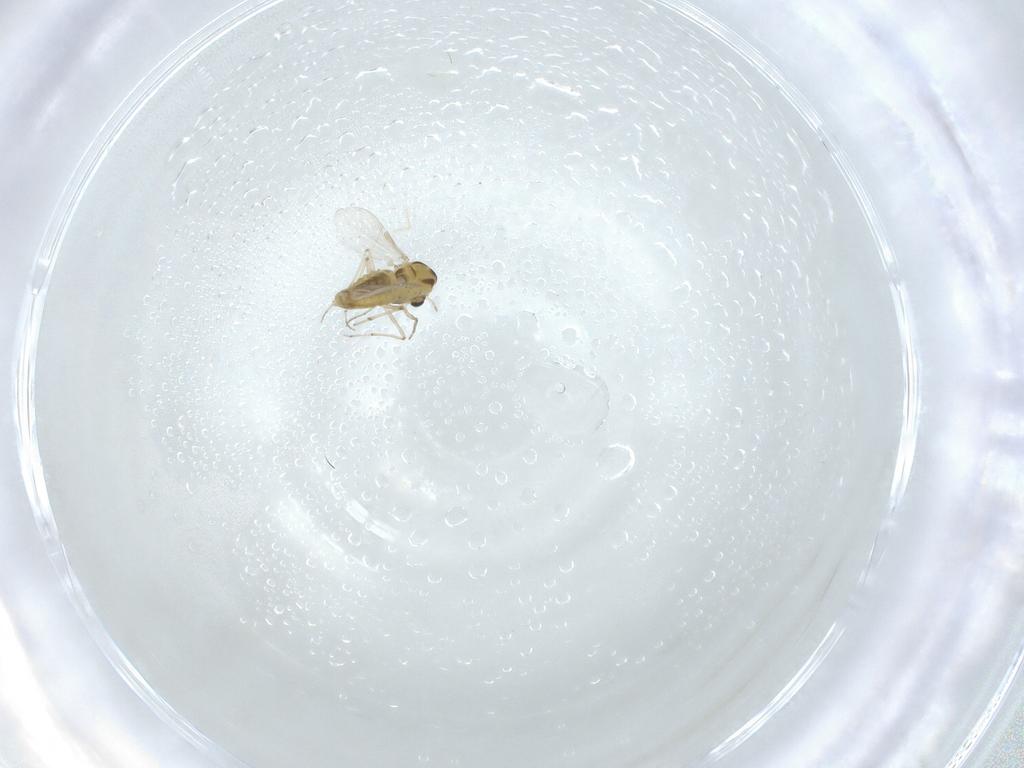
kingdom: Animalia
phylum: Arthropoda
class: Insecta
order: Diptera
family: Chironomidae
